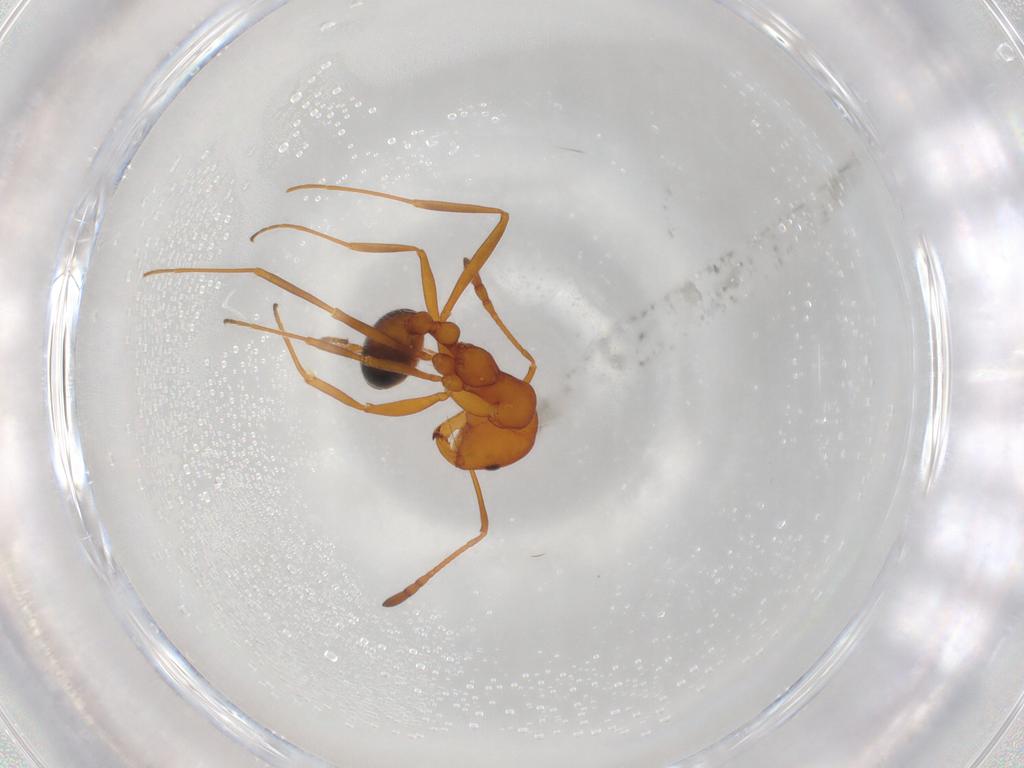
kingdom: Animalia
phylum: Arthropoda
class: Insecta
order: Hymenoptera
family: Formicidae
